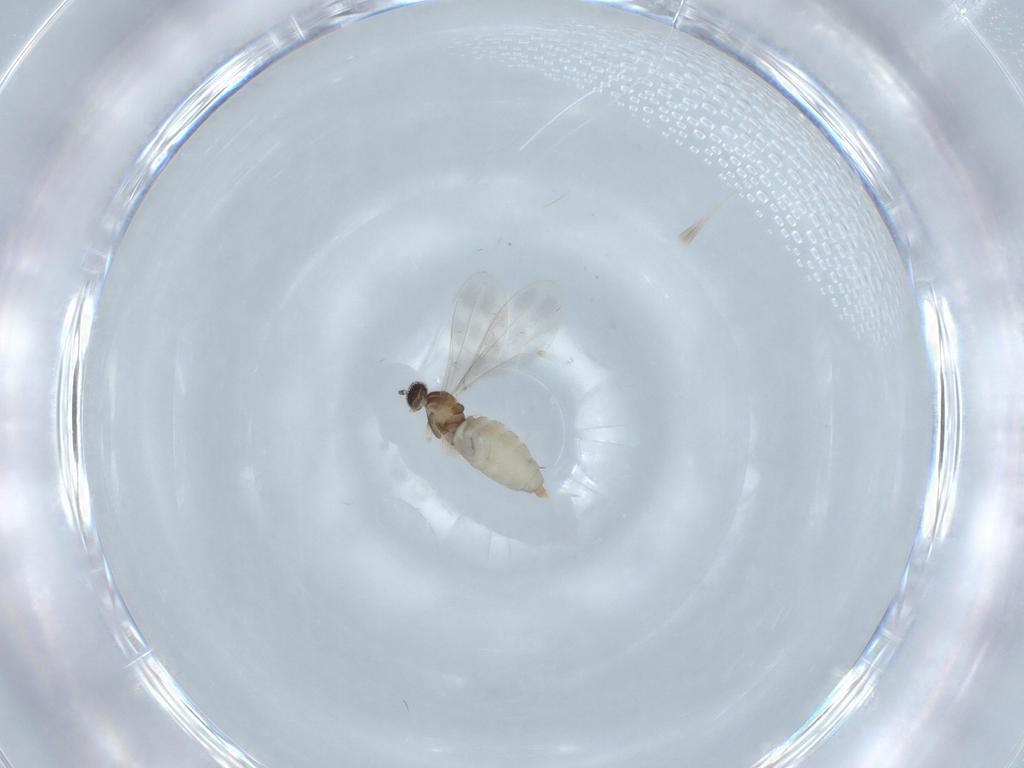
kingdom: Animalia
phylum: Arthropoda
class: Insecta
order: Diptera
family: Cecidomyiidae
